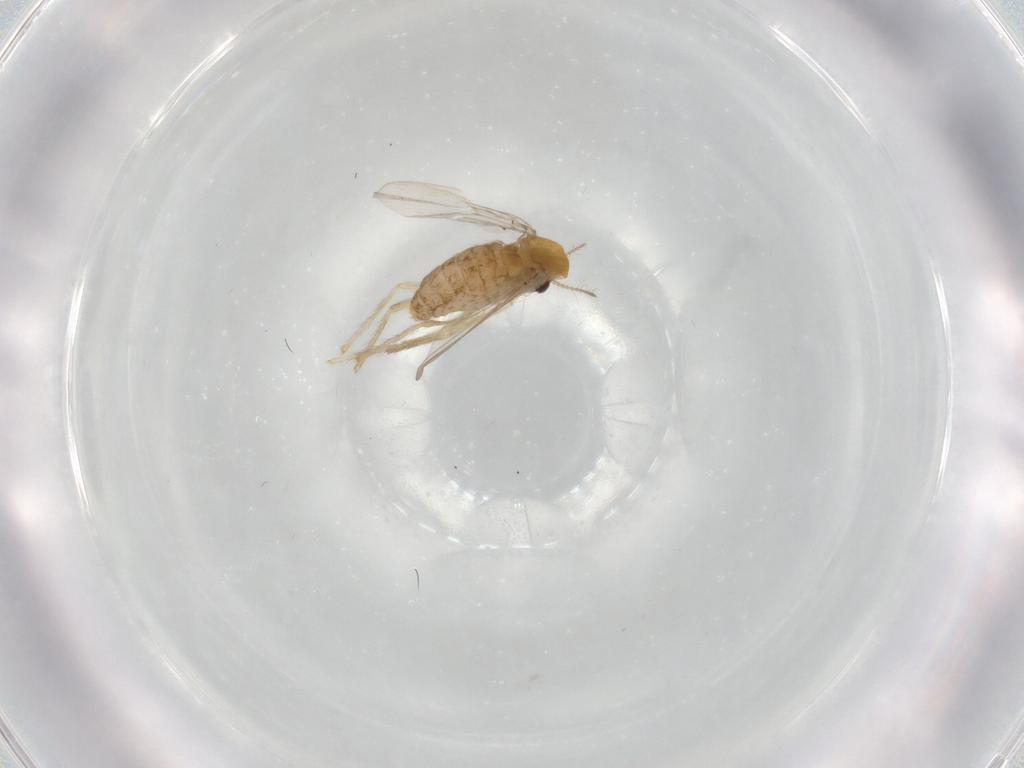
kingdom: Animalia
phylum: Arthropoda
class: Insecta
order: Diptera
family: Chironomidae
